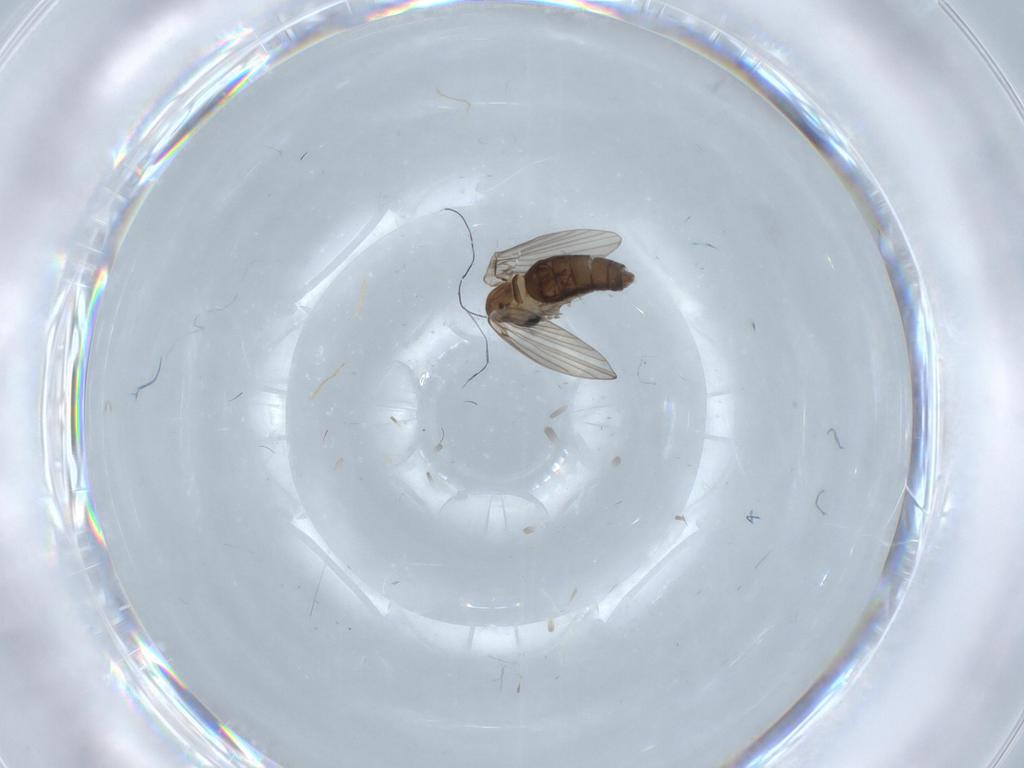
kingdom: Animalia
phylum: Arthropoda
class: Insecta
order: Diptera
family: Psychodidae
